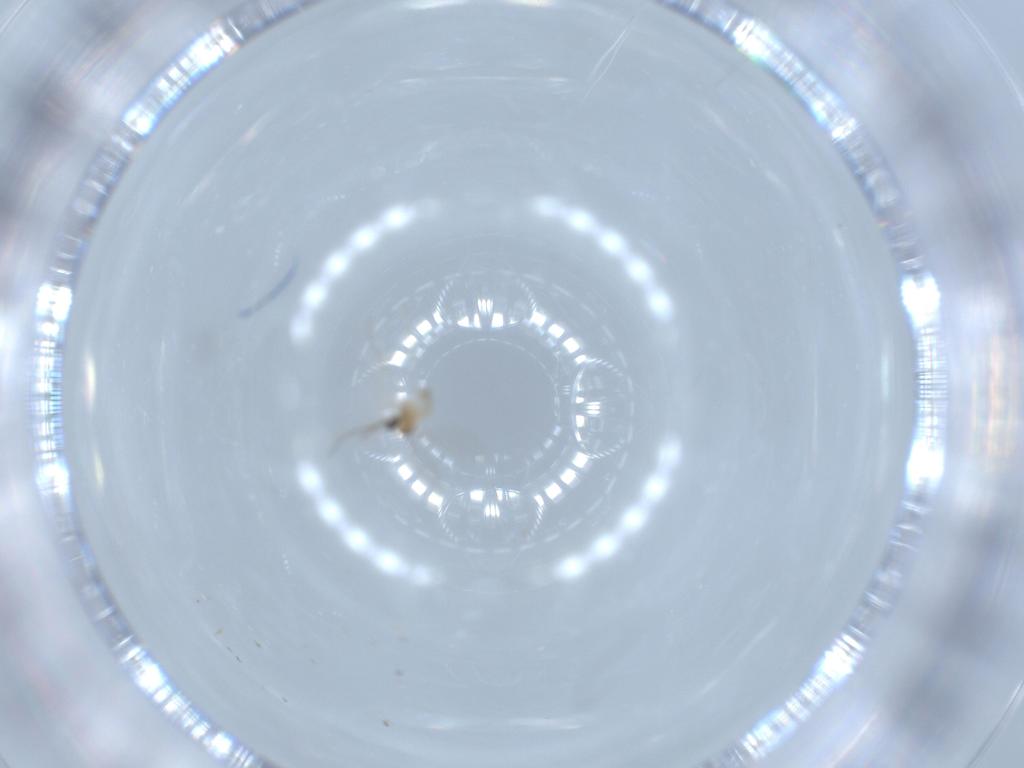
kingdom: Animalia
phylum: Arthropoda
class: Insecta
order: Diptera
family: Cecidomyiidae
